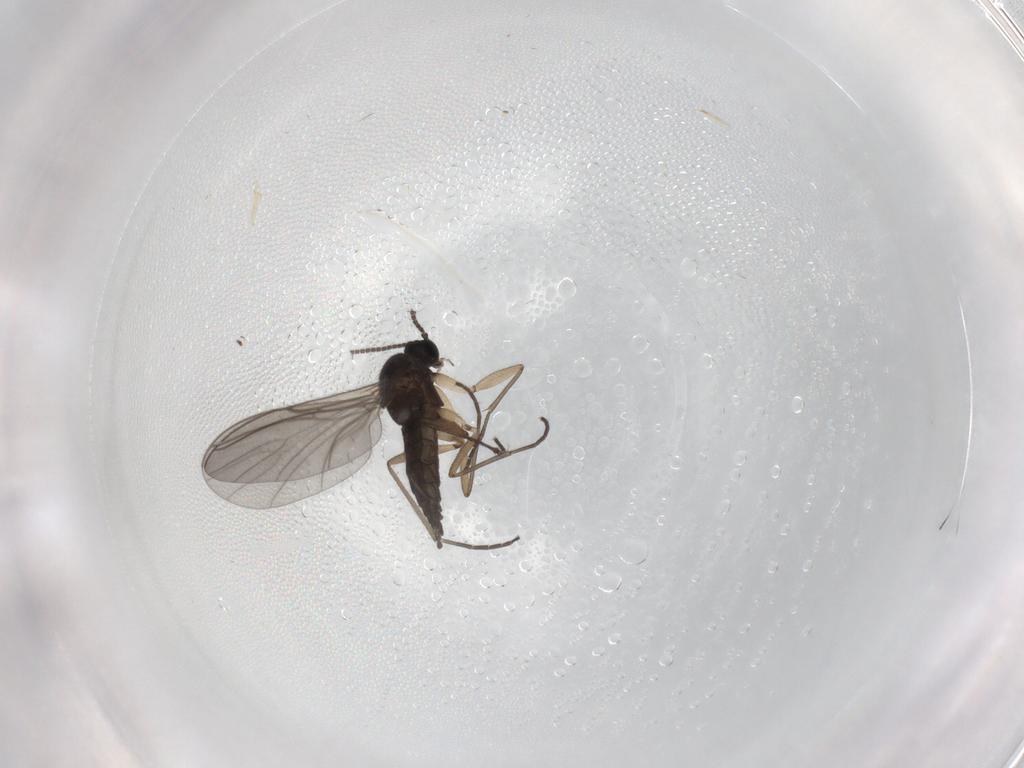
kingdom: Animalia
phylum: Arthropoda
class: Insecta
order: Diptera
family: Sciaridae
